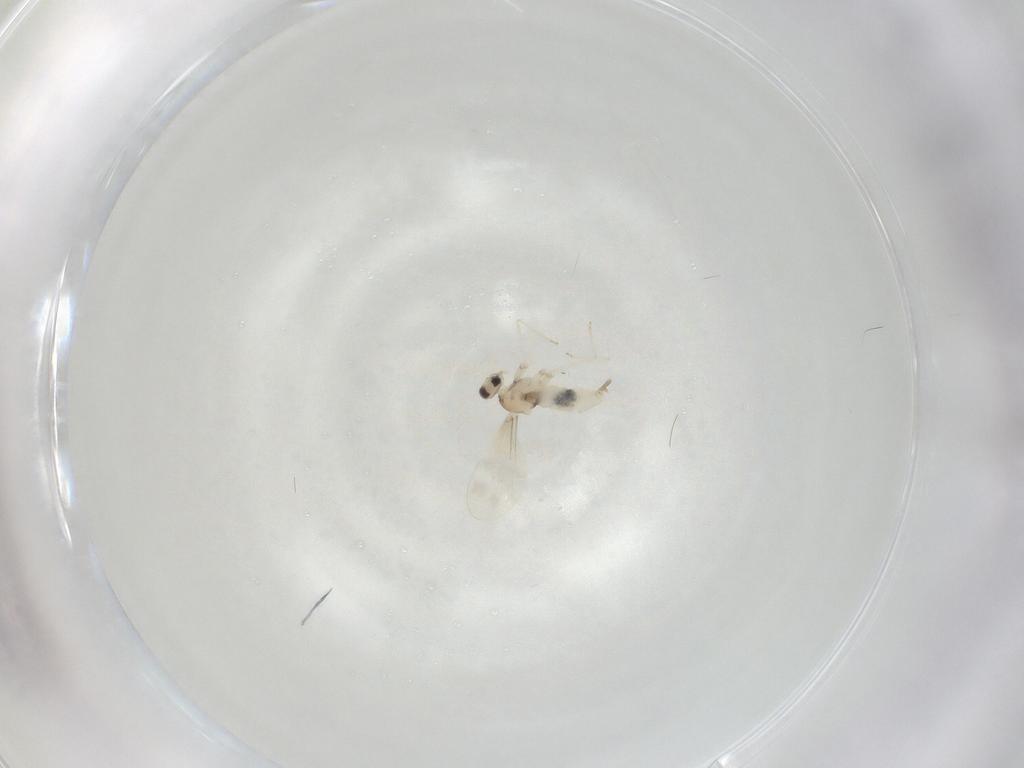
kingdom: Animalia
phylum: Arthropoda
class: Insecta
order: Diptera
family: Cecidomyiidae
